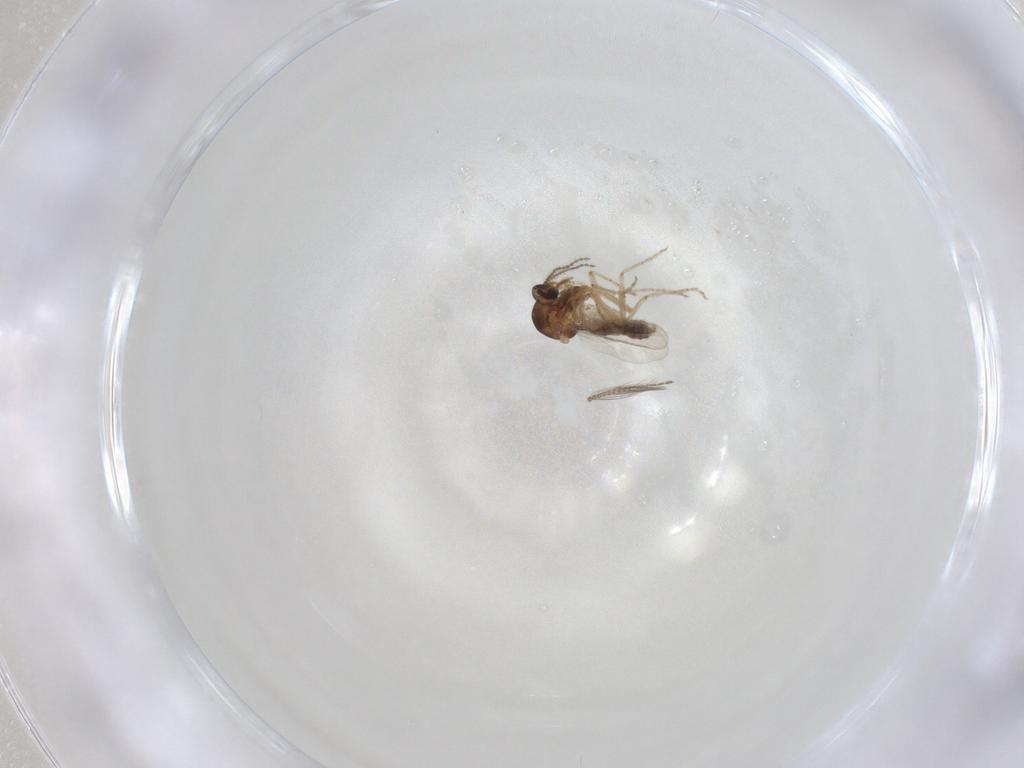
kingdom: Animalia
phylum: Arthropoda
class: Insecta
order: Diptera
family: Ceratopogonidae
